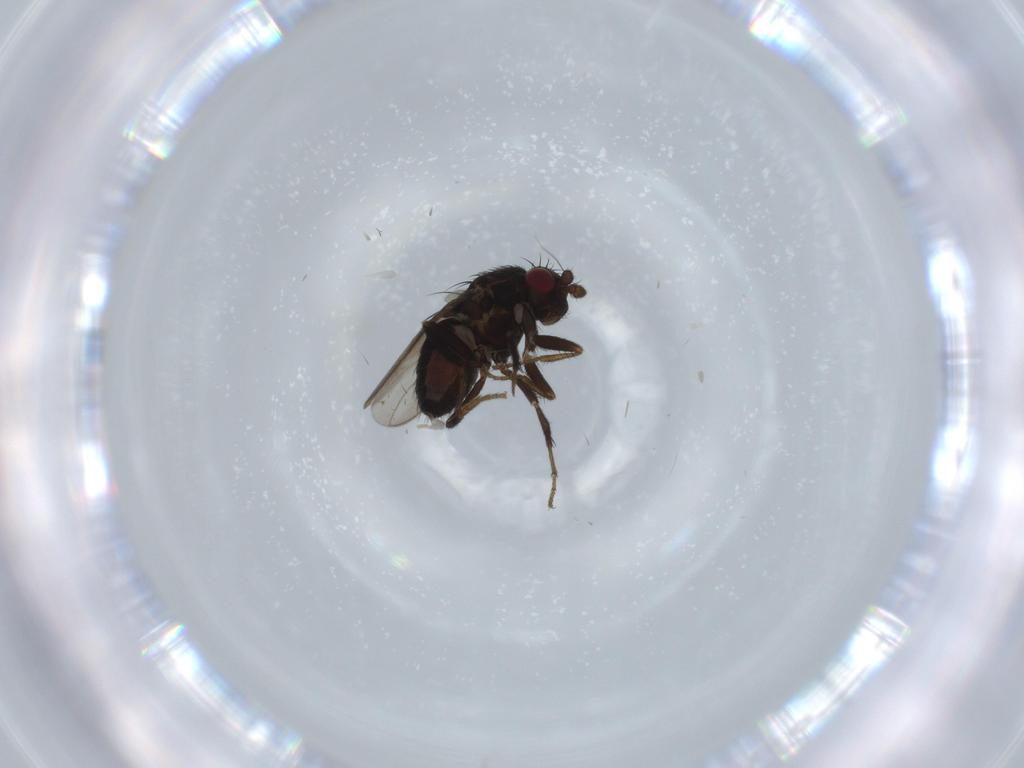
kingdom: Animalia
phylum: Arthropoda
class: Insecta
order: Diptera
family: Sphaeroceridae
